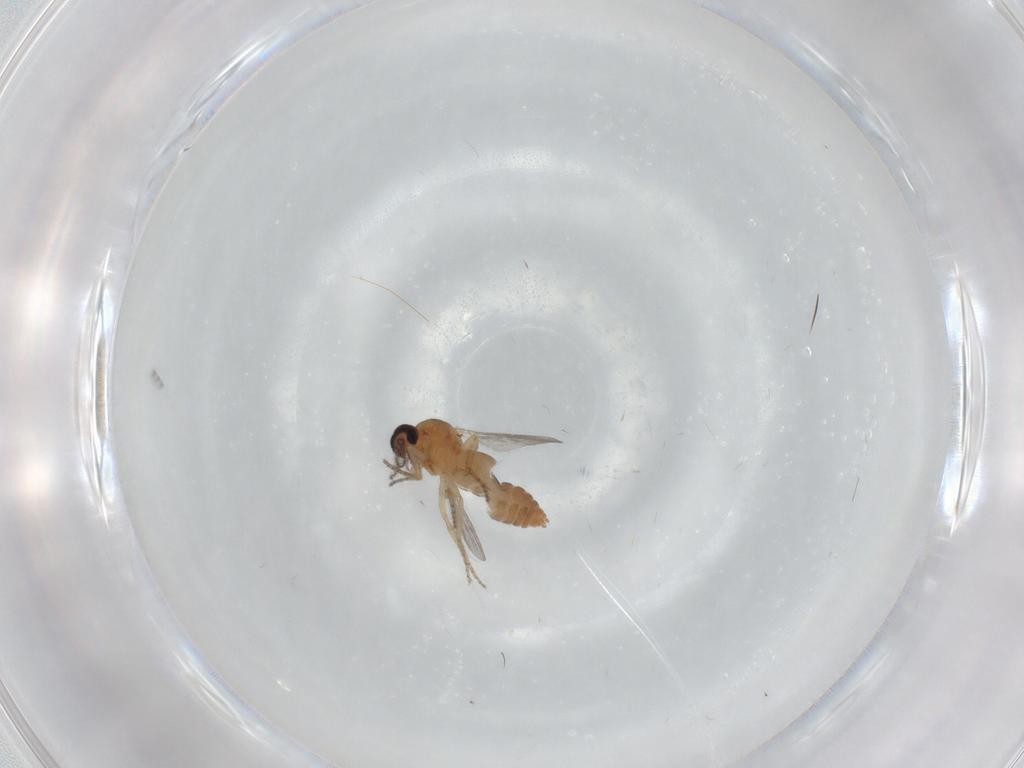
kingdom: Animalia
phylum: Arthropoda
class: Insecta
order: Diptera
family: Ceratopogonidae
